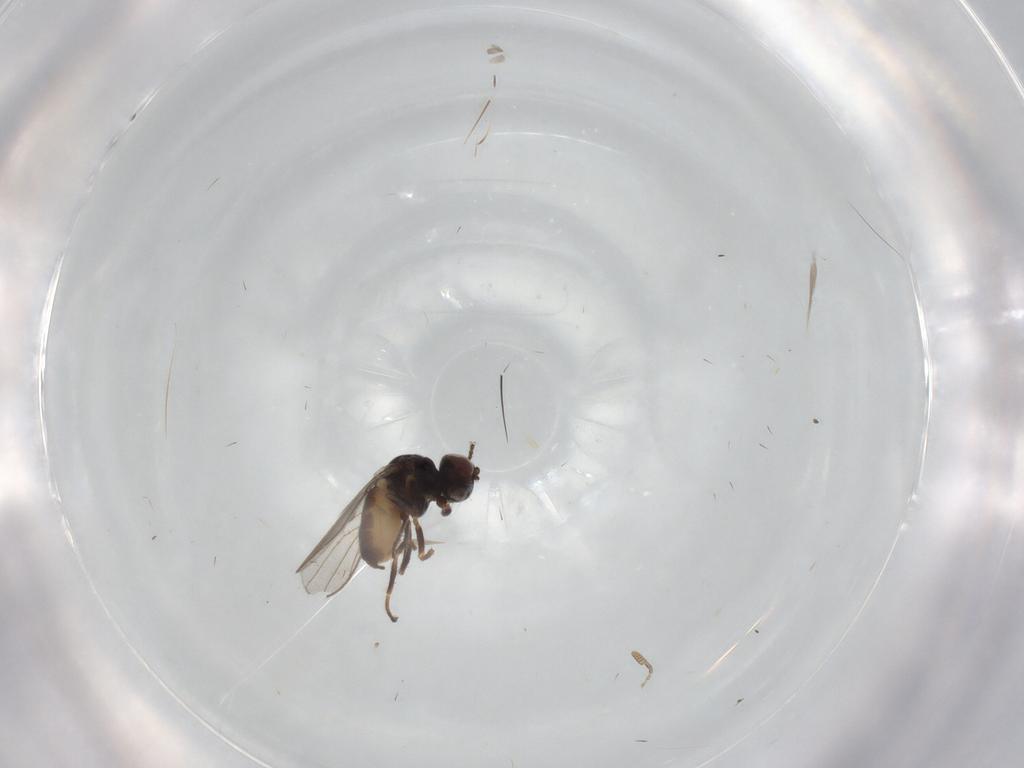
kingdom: Animalia
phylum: Arthropoda
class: Insecta
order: Diptera
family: Chloropidae
